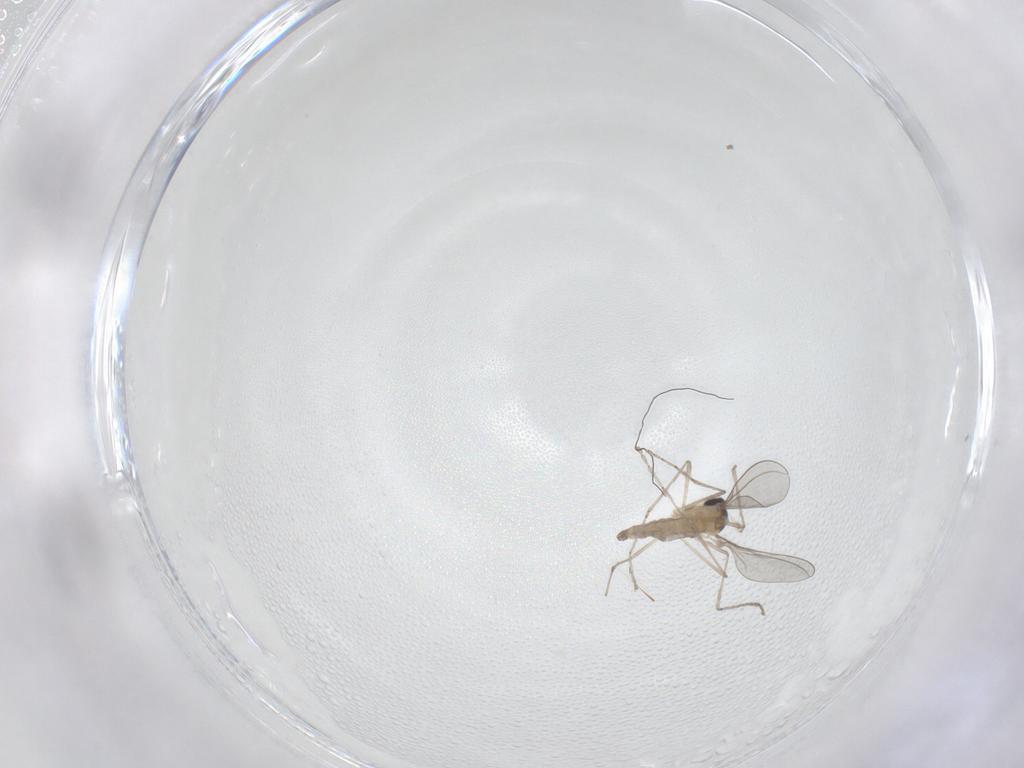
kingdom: Animalia
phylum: Arthropoda
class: Insecta
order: Diptera
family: Cecidomyiidae
